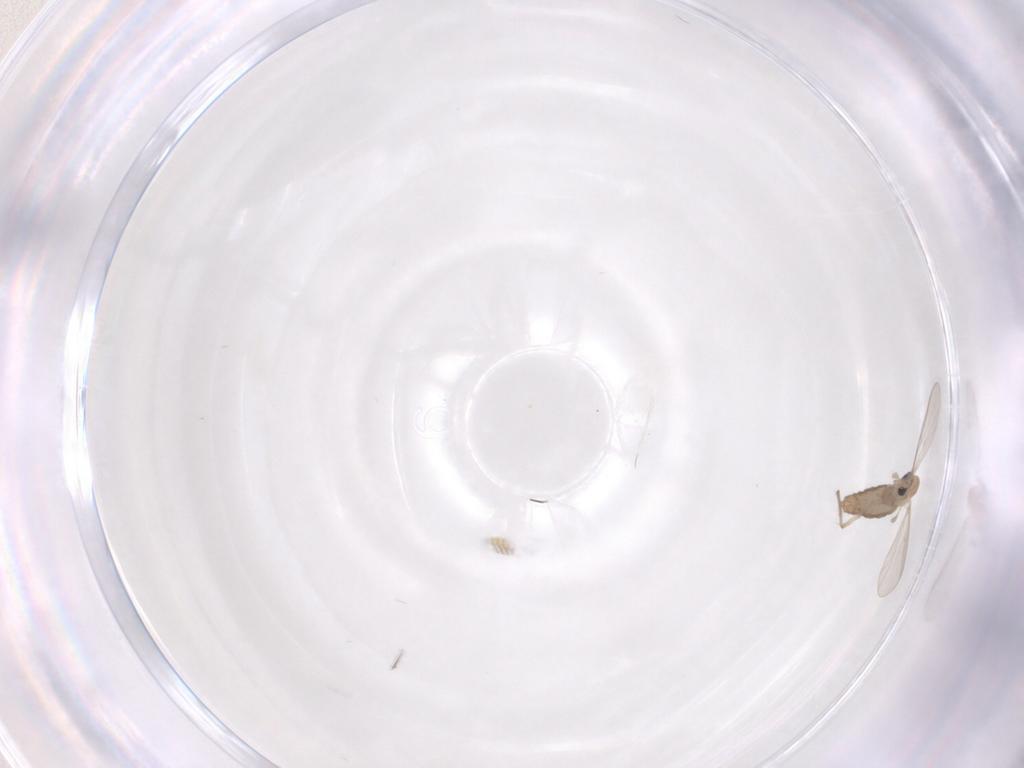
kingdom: Animalia
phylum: Arthropoda
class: Insecta
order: Diptera
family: Chironomidae
